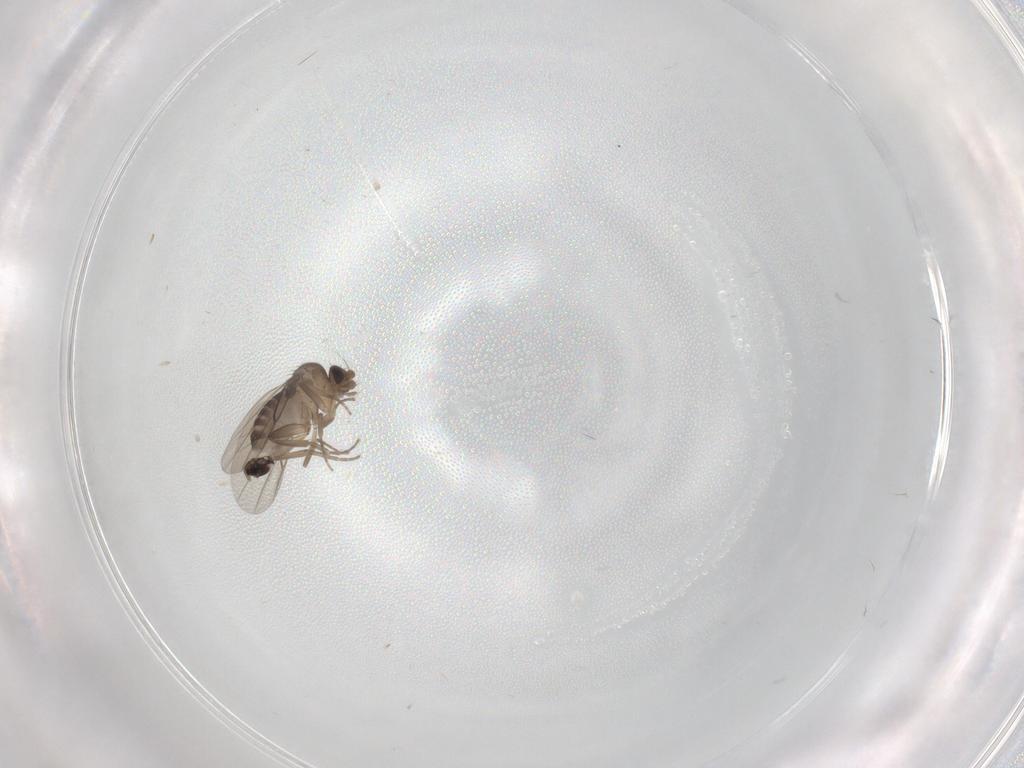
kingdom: Animalia
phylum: Arthropoda
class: Insecta
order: Diptera
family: Phoridae
